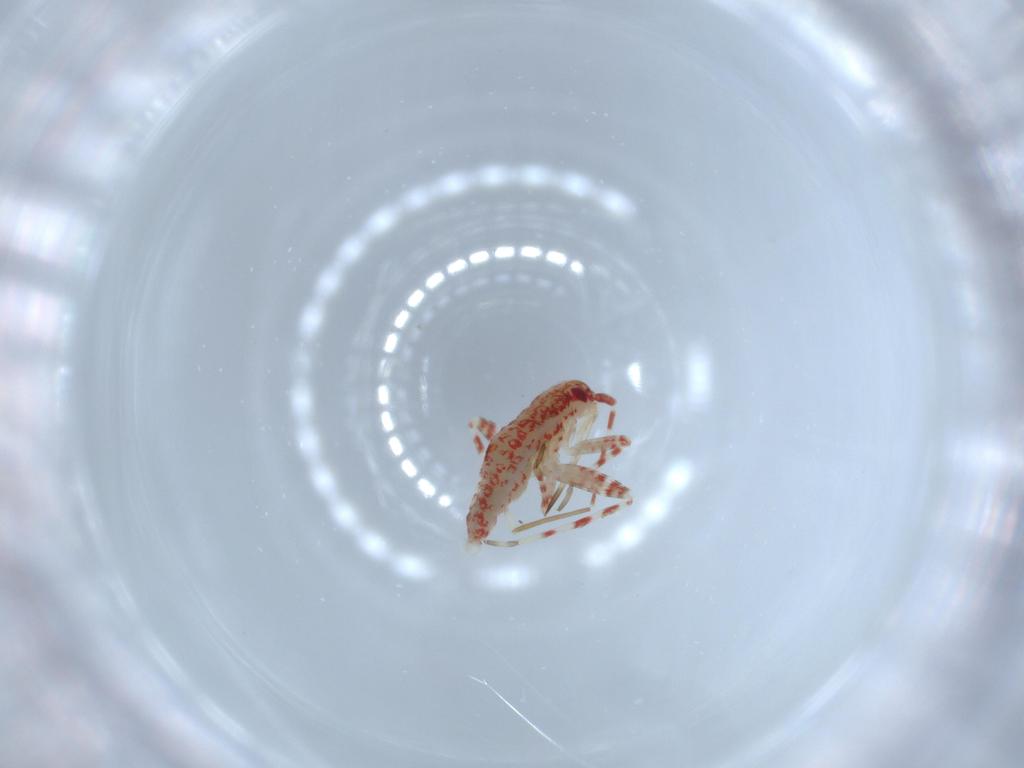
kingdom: Animalia
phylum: Arthropoda
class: Insecta
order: Hemiptera
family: Miridae
